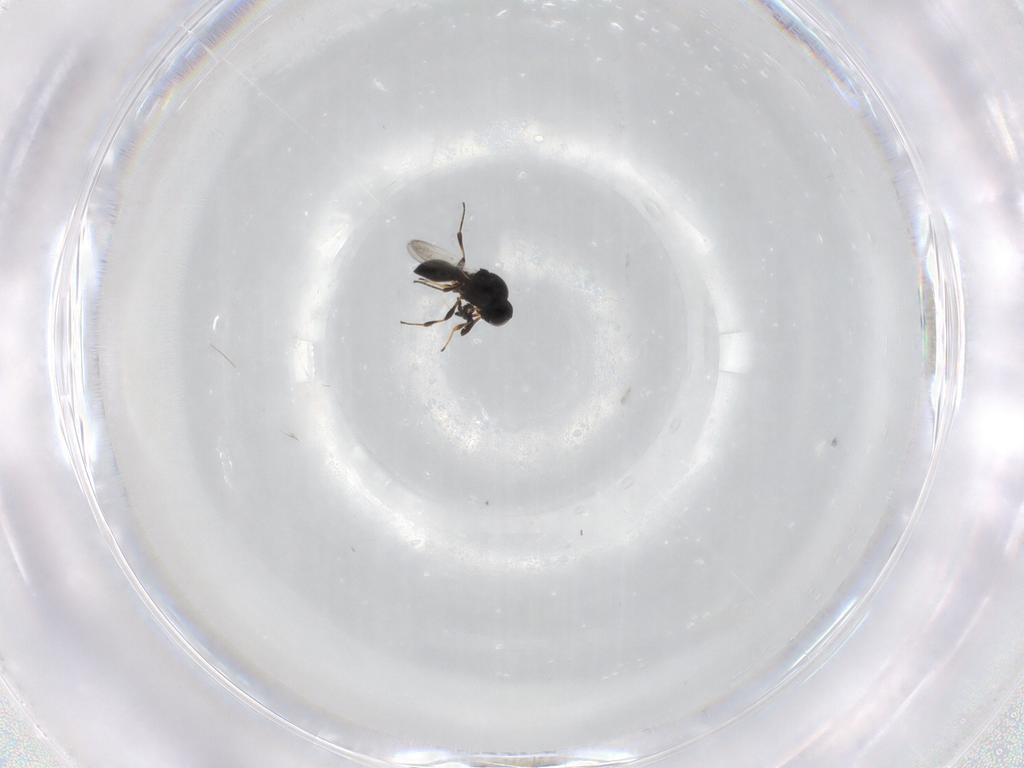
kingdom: Animalia
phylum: Arthropoda
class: Insecta
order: Hymenoptera
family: Platygastridae
